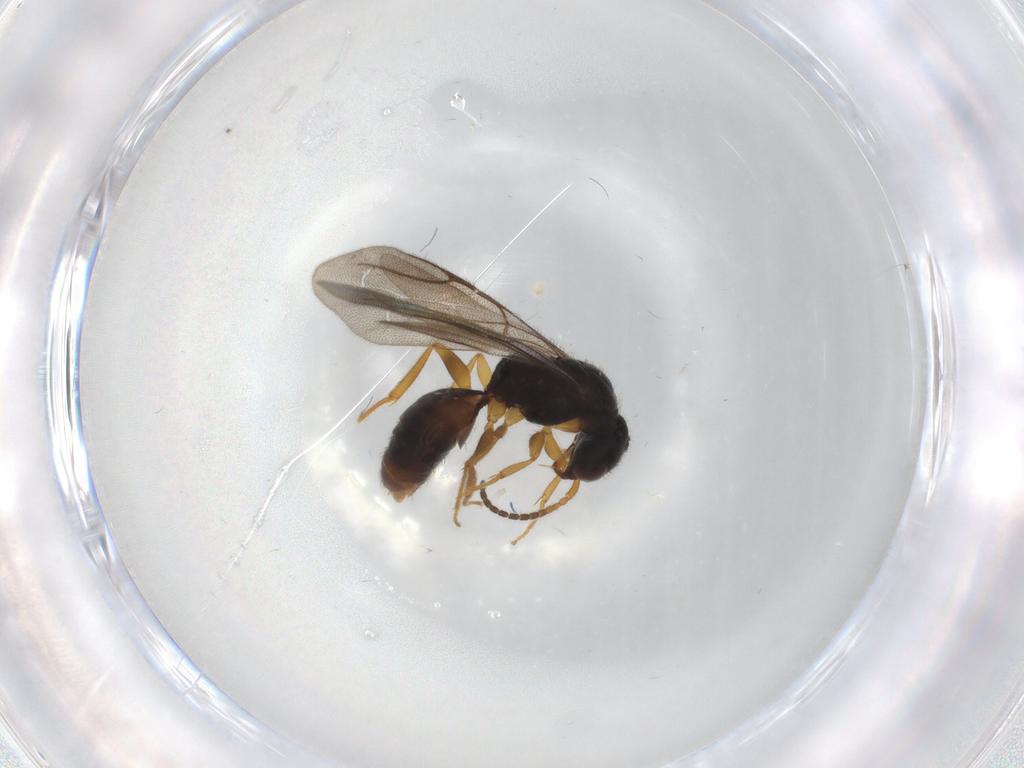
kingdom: Animalia
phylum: Arthropoda
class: Insecta
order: Hymenoptera
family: Bethylidae
